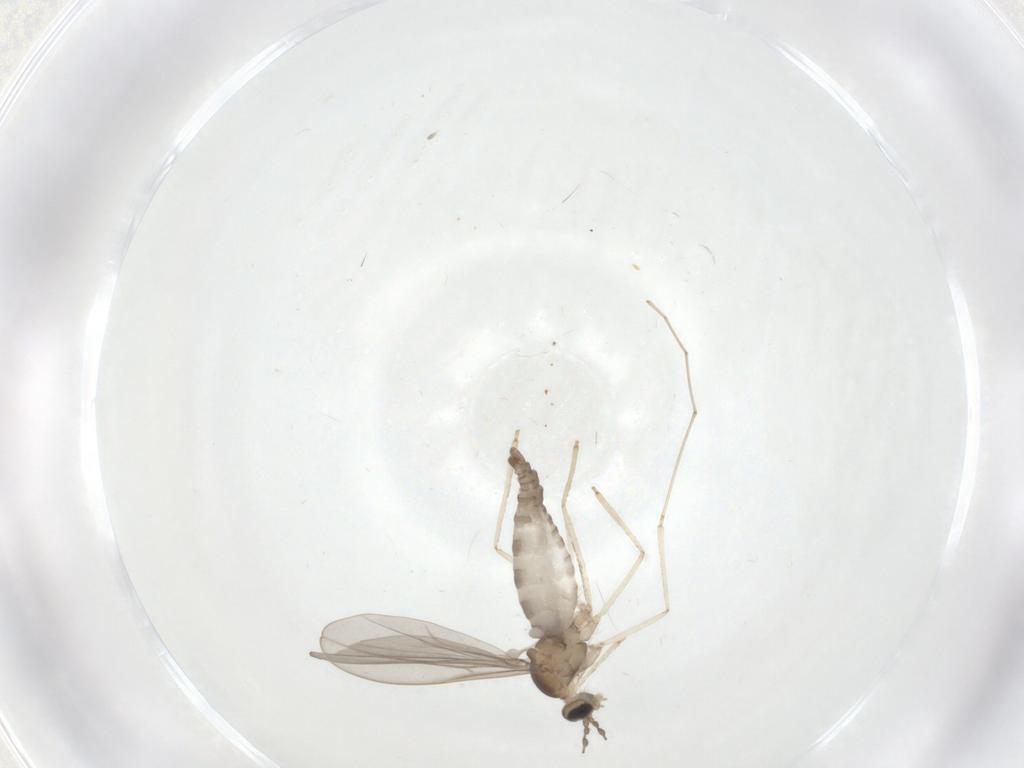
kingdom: Animalia
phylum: Arthropoda
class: Insecta
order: Diptera
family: Cecidomyiidae
